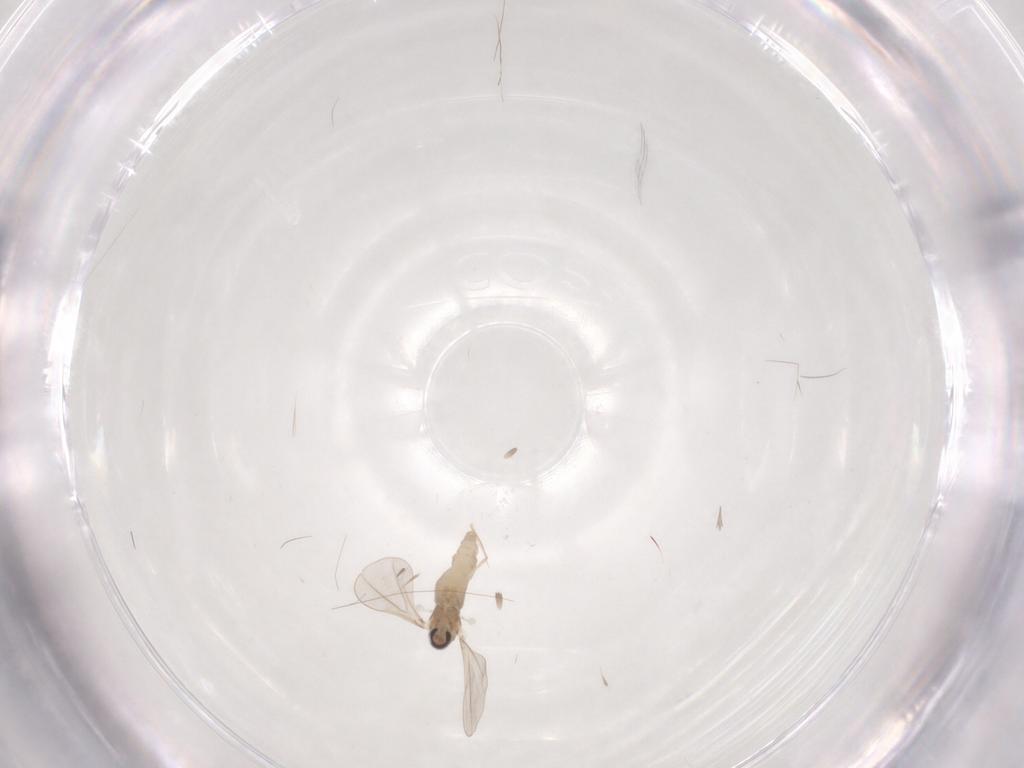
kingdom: Animalia
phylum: Arthropoda
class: Insecta
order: Diptera
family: Cecidomyiidae
